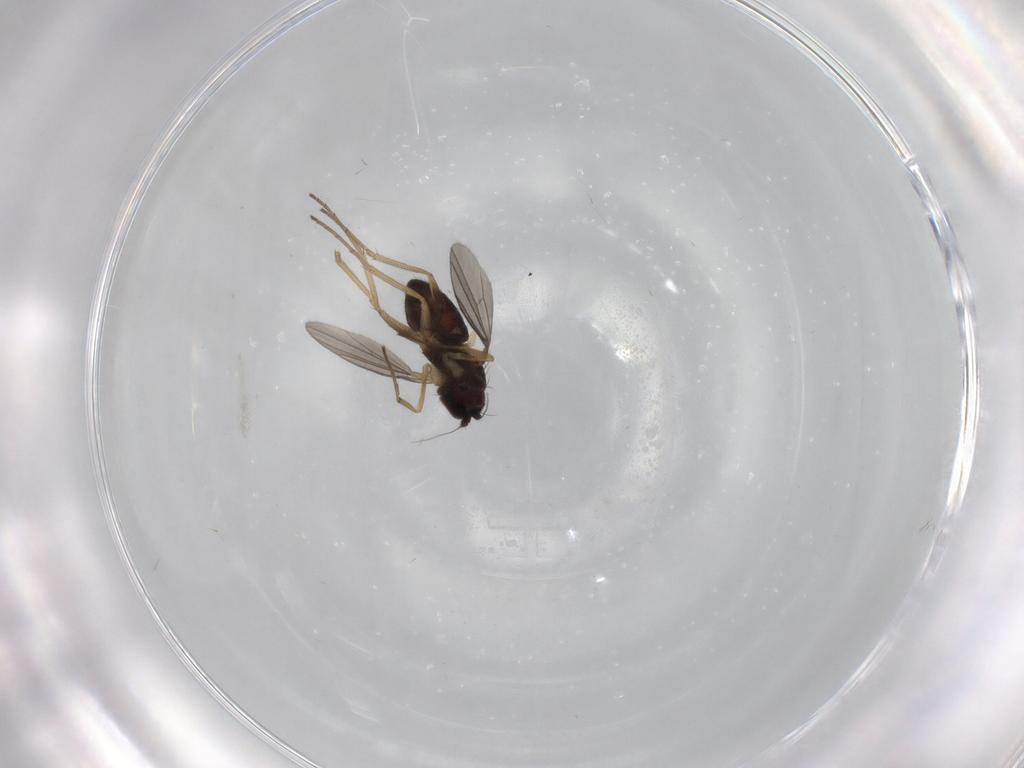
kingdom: Animalia
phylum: Arthropoda
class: Insecta
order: Diptera
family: Dolichopodidae
